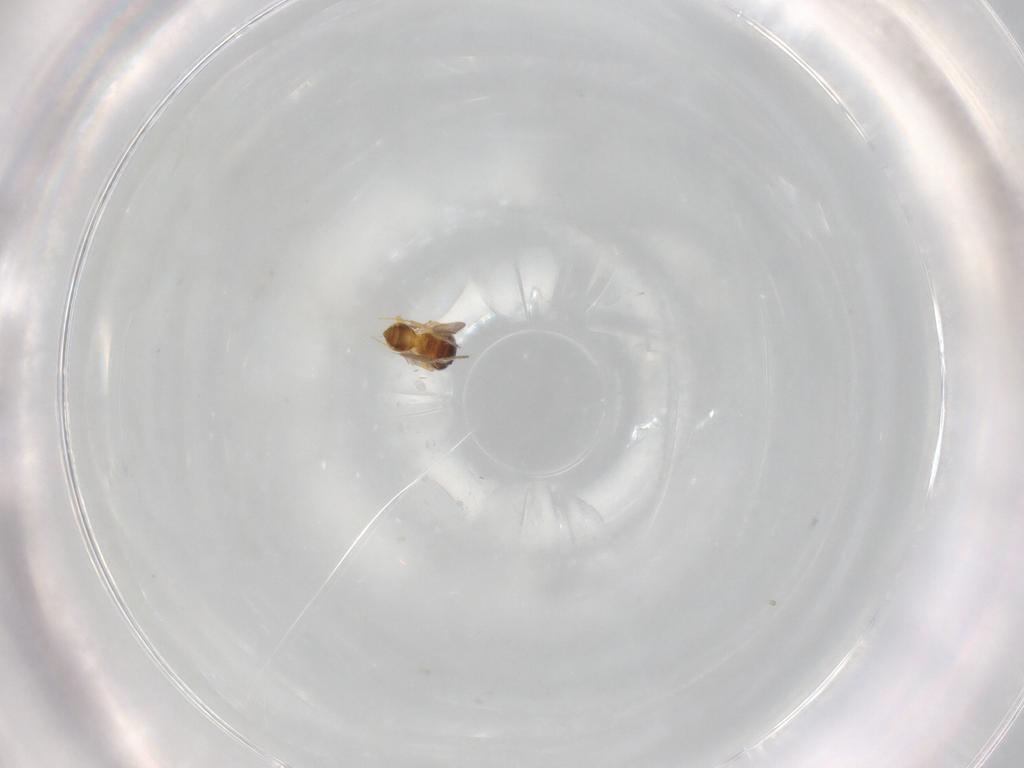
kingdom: Animalia
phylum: Arthropoda
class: Insecta
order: Hymenoptera
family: Scelionidae
